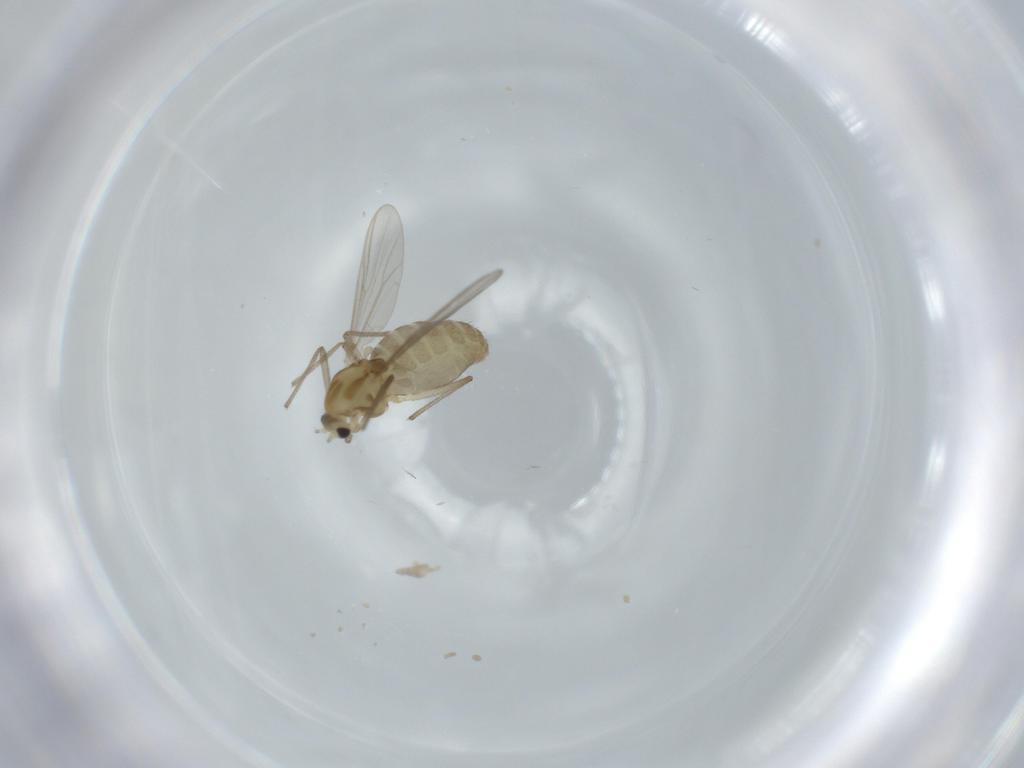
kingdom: Animalia
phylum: Arthropoda
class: Insecta
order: Diptera
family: Chironomidae
